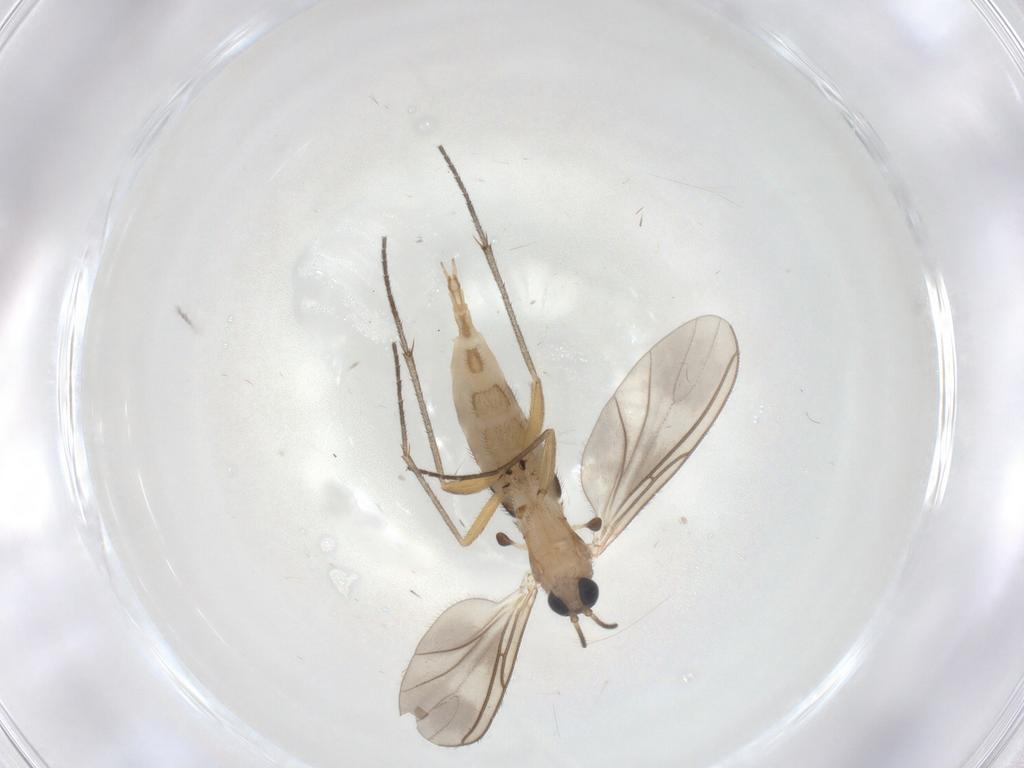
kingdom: Animalia
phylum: Arthropoda
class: Insecta
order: Diptera
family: Sciaridae
